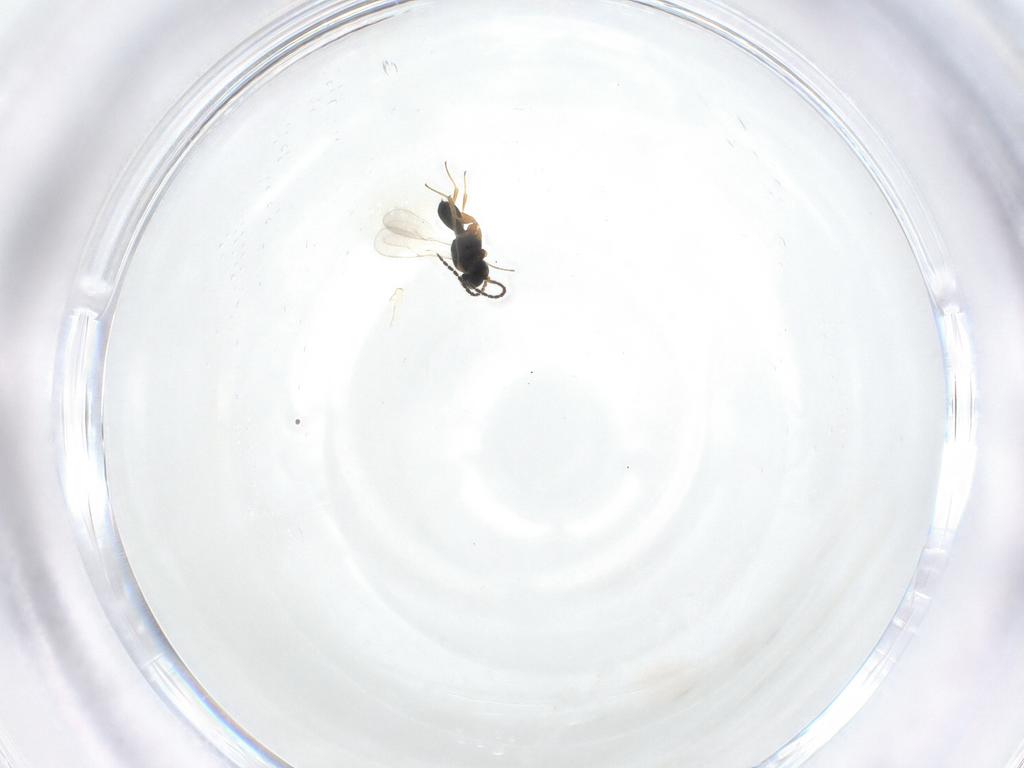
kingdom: Animalia
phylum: Arthropoda
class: Insecta
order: Hymenoptera
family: Scelionidae
